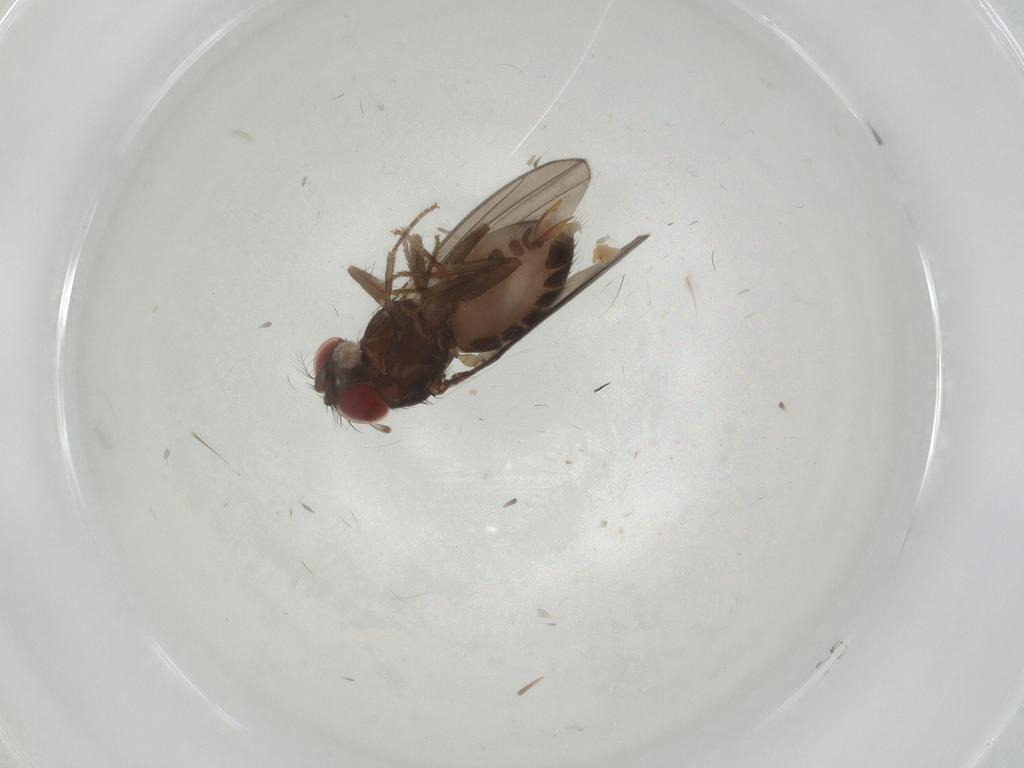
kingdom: Animalia
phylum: Arthropoda
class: Insecta
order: Diptera
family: Drosophilidae
